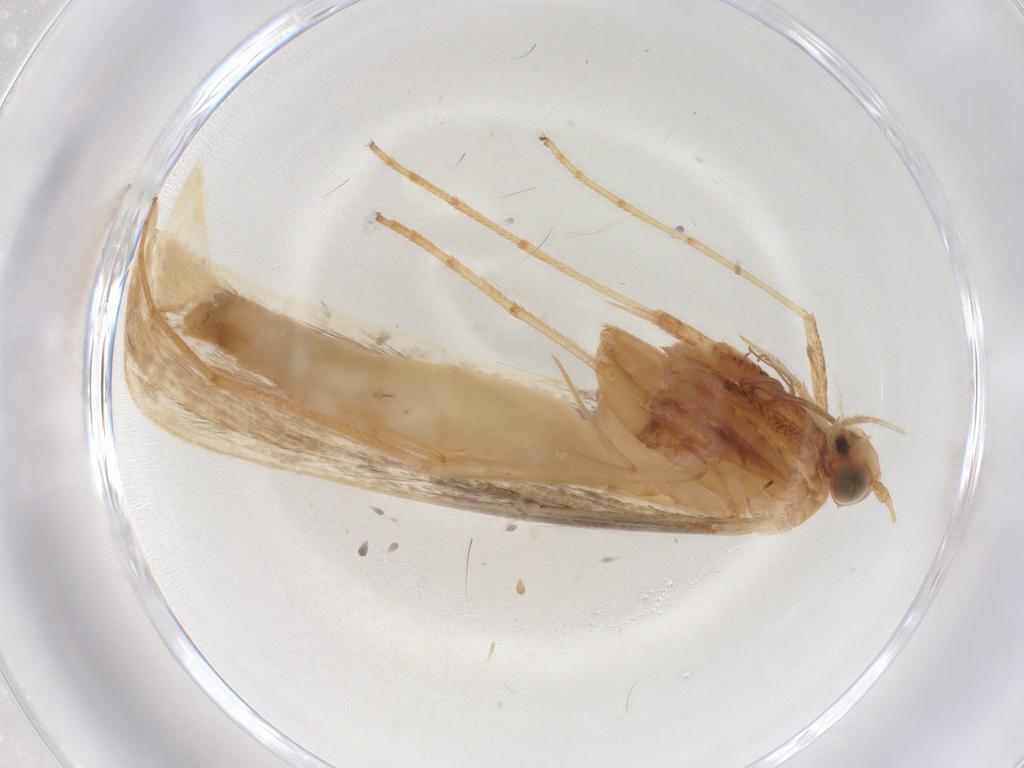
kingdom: Animalia
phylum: Arthropoda
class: Insecta
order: Lepidoptera
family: Gracillariidae
